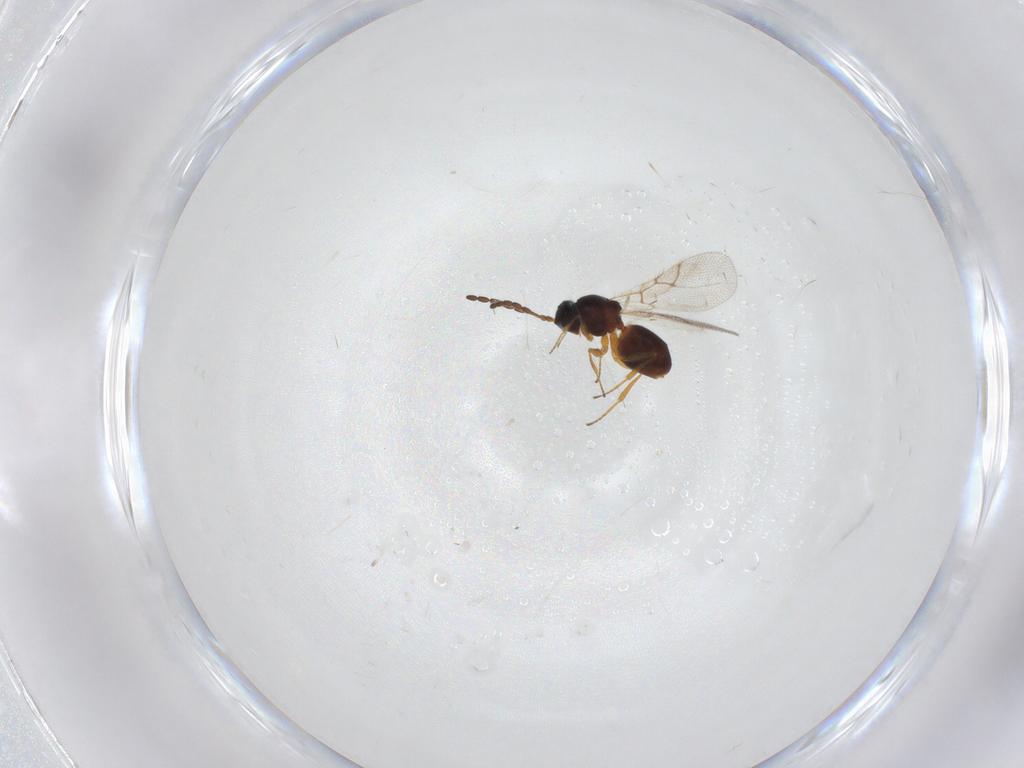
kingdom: Animalia
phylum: Arthropoda
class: Insecta
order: Hymenoptera
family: Figitidae
